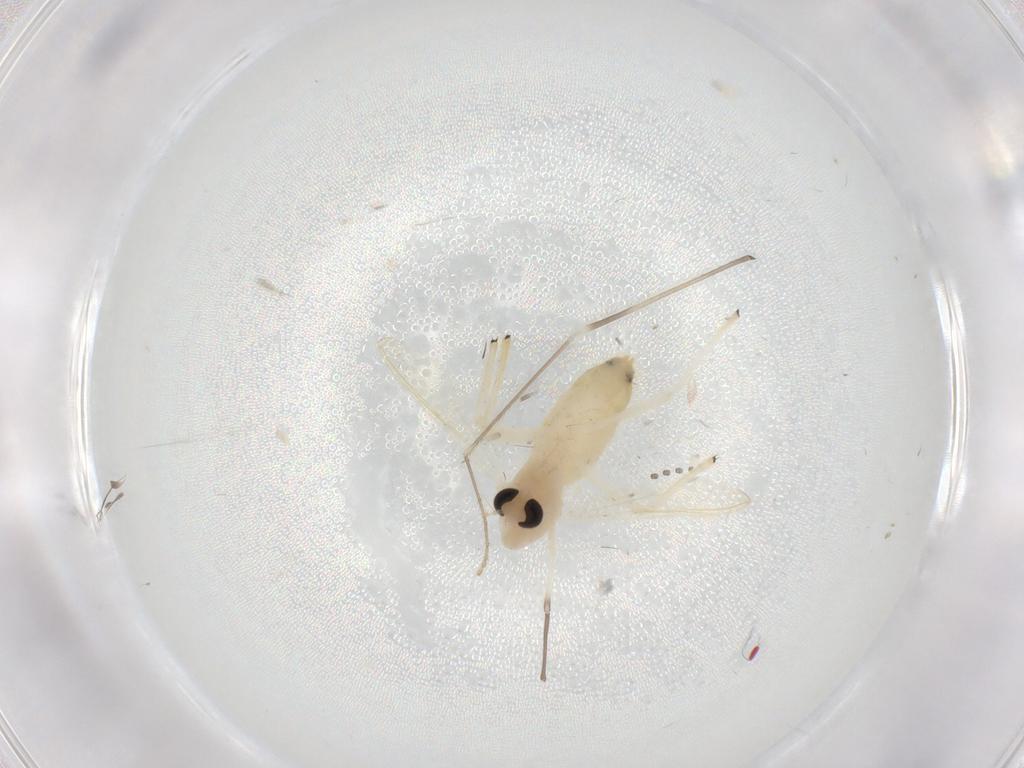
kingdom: Animalia
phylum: Arthropoda
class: Insecta
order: Diptera
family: Chironomidae
